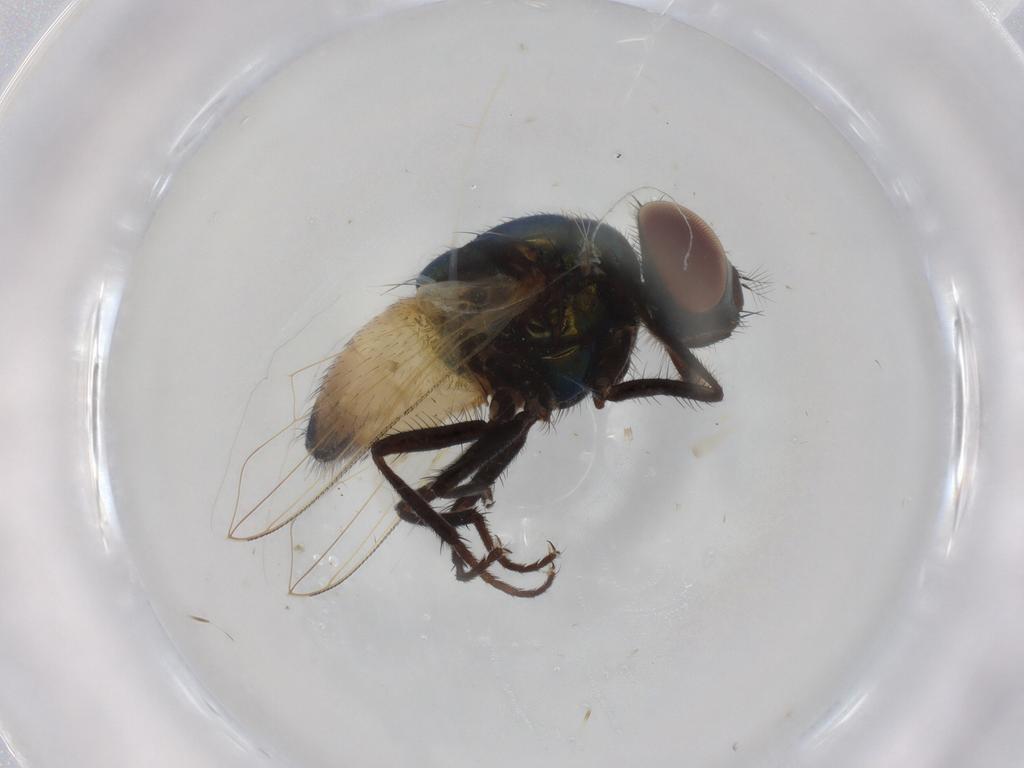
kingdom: Animalia
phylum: Arthropoda
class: Insecta
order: Diptera
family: Muscidae
